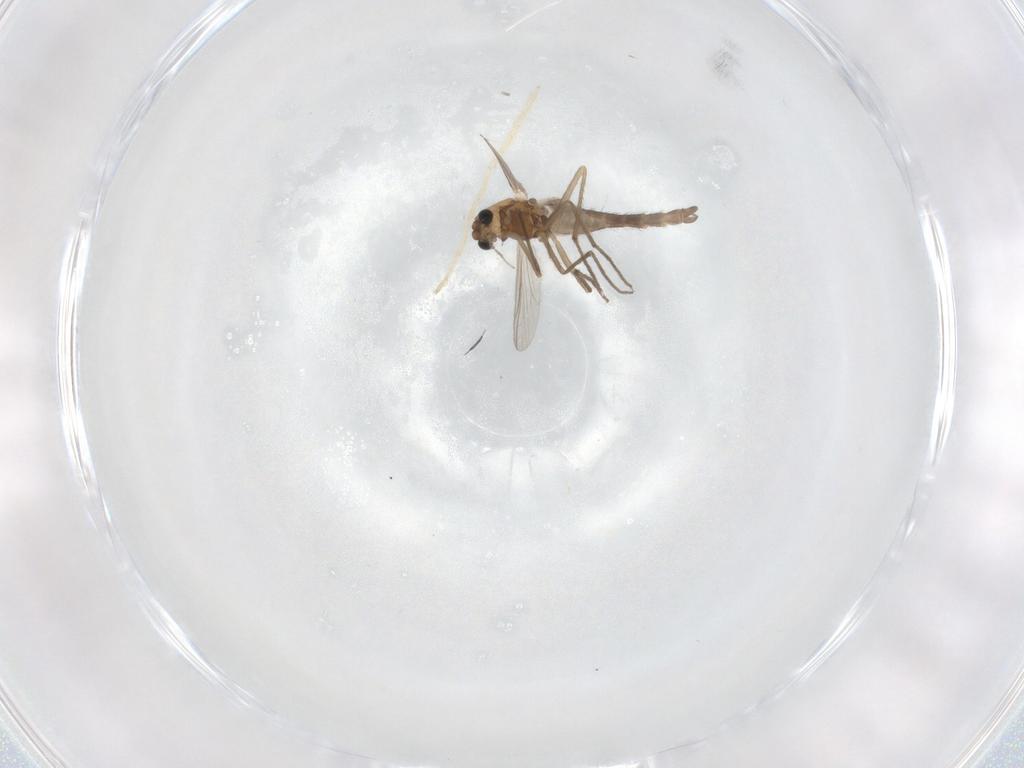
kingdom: Animalia
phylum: Arthropoda
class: Insecta
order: Diptera
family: Chironomidae
